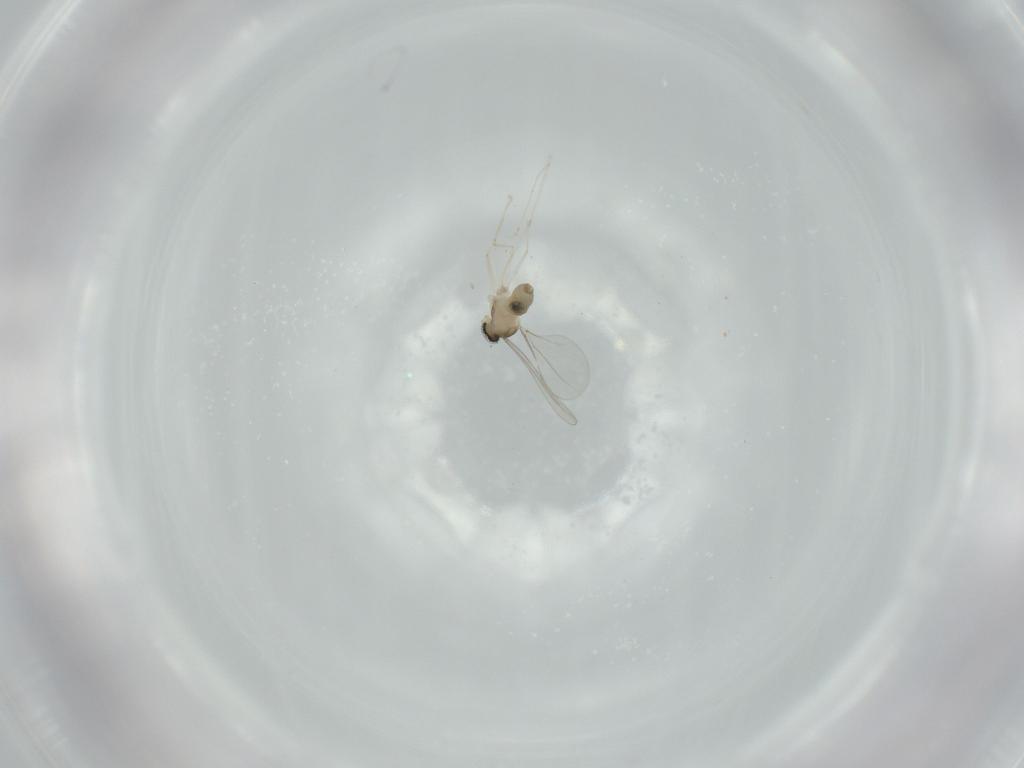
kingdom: Animalia
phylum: Arthropoda
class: Insecta
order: Diptera
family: Cecidomyiidae
